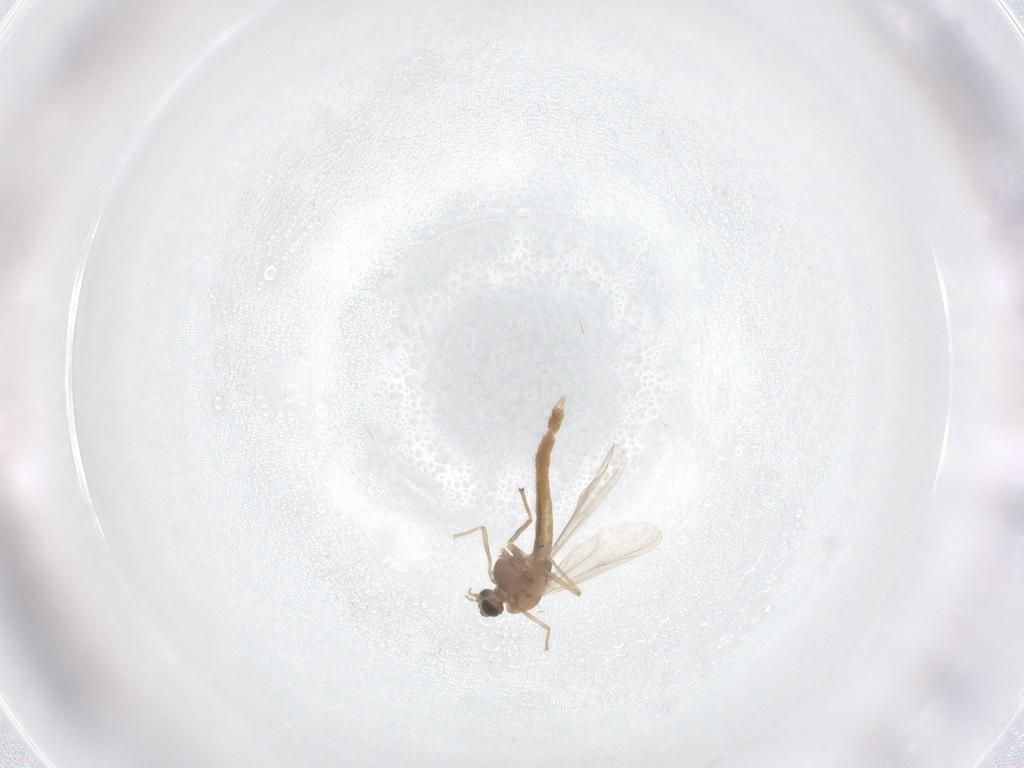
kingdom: Animalia
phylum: Arthropoda
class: Insecta
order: Diptera
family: Chironomidae
